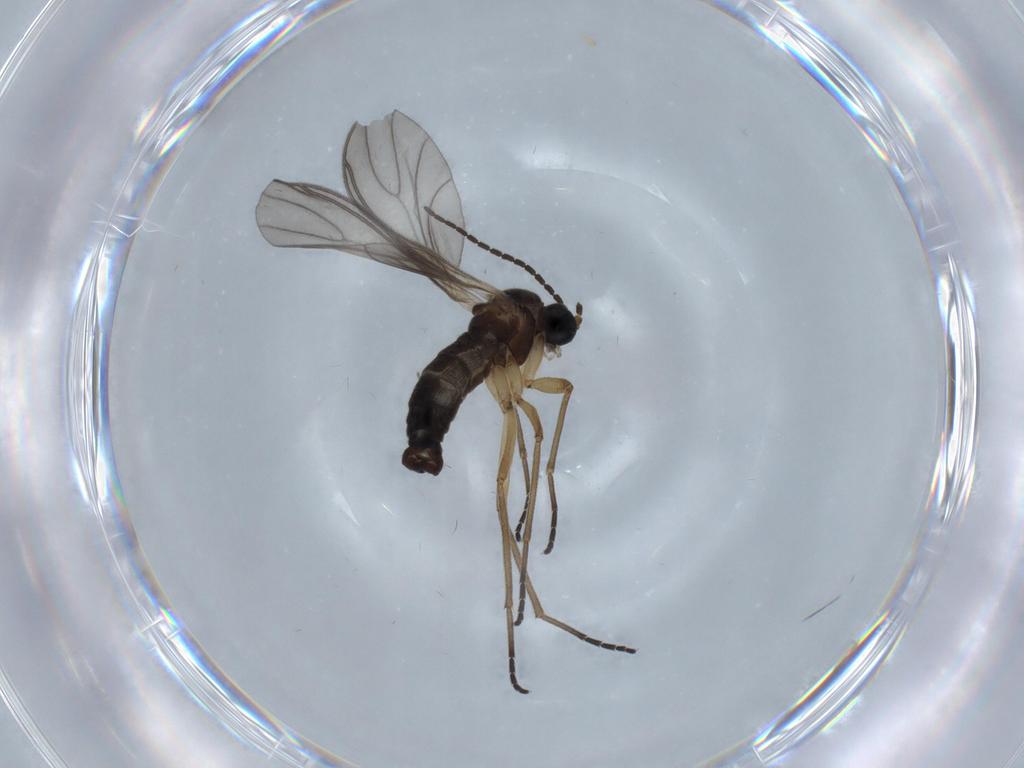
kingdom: Animalia
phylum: Arthropoda
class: Insecta
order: Diptera
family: Sciaridae
